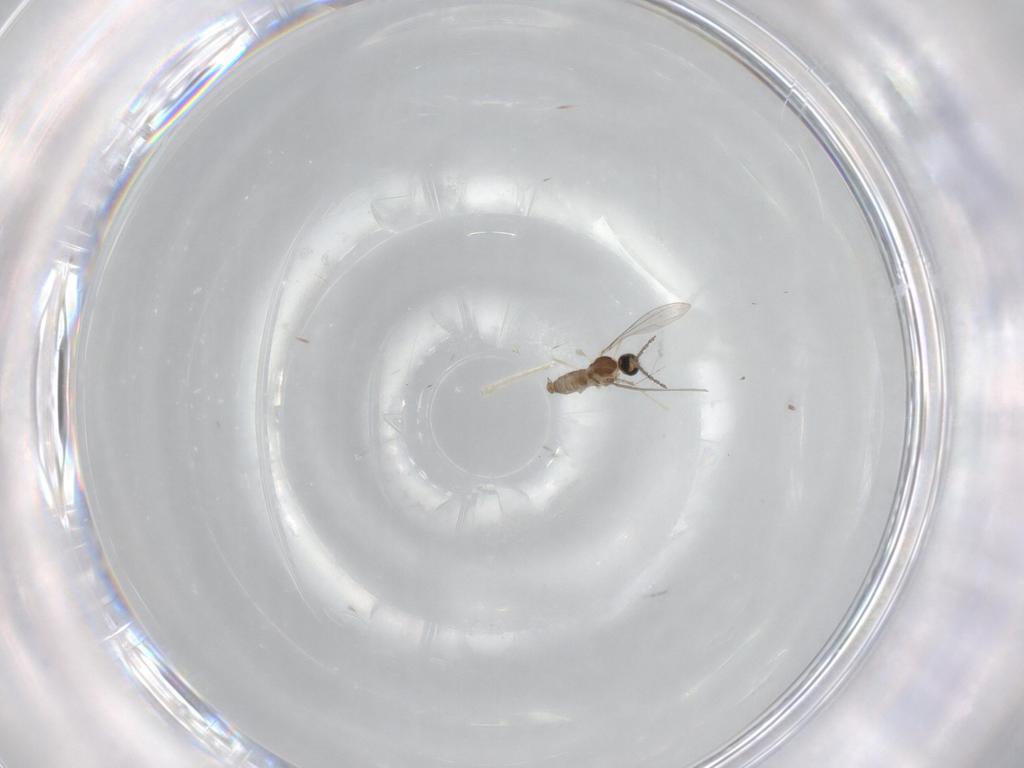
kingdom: Animalia
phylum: Arthropoda
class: Insecta
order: Diptera
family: Cecidomyiidae
